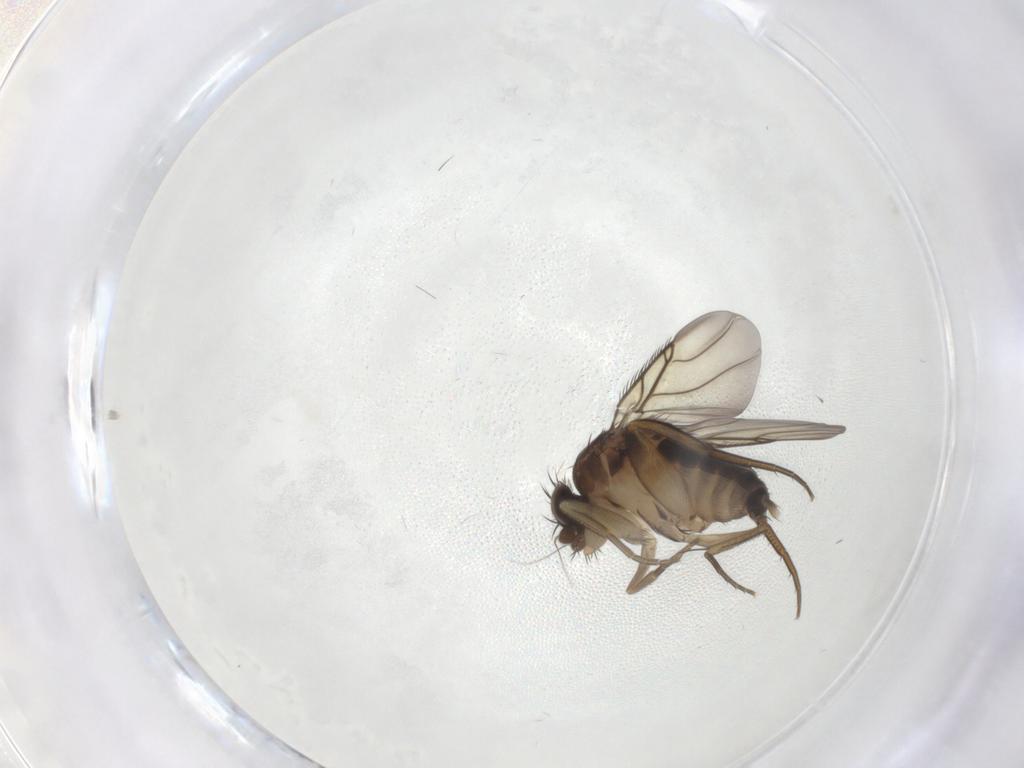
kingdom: Animalia
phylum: Arthropoda
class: Insecta
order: Diptera
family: Phoridae
